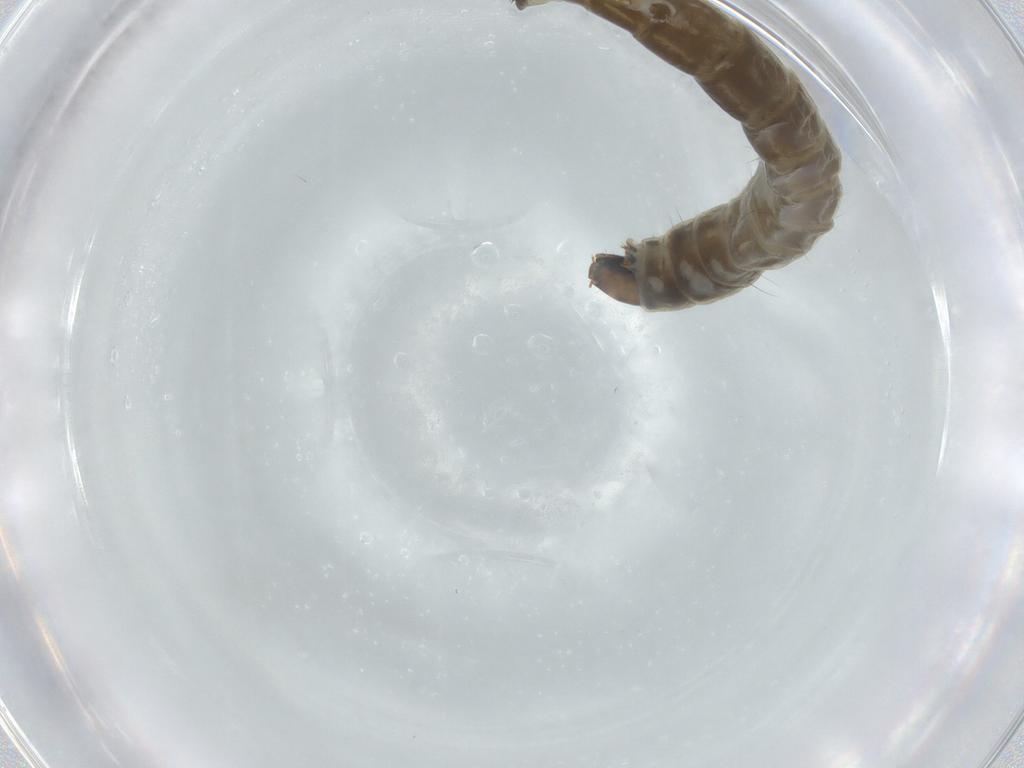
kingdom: Animalia
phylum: Arthropoda
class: Insecta
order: Diptera
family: Chironomidae
